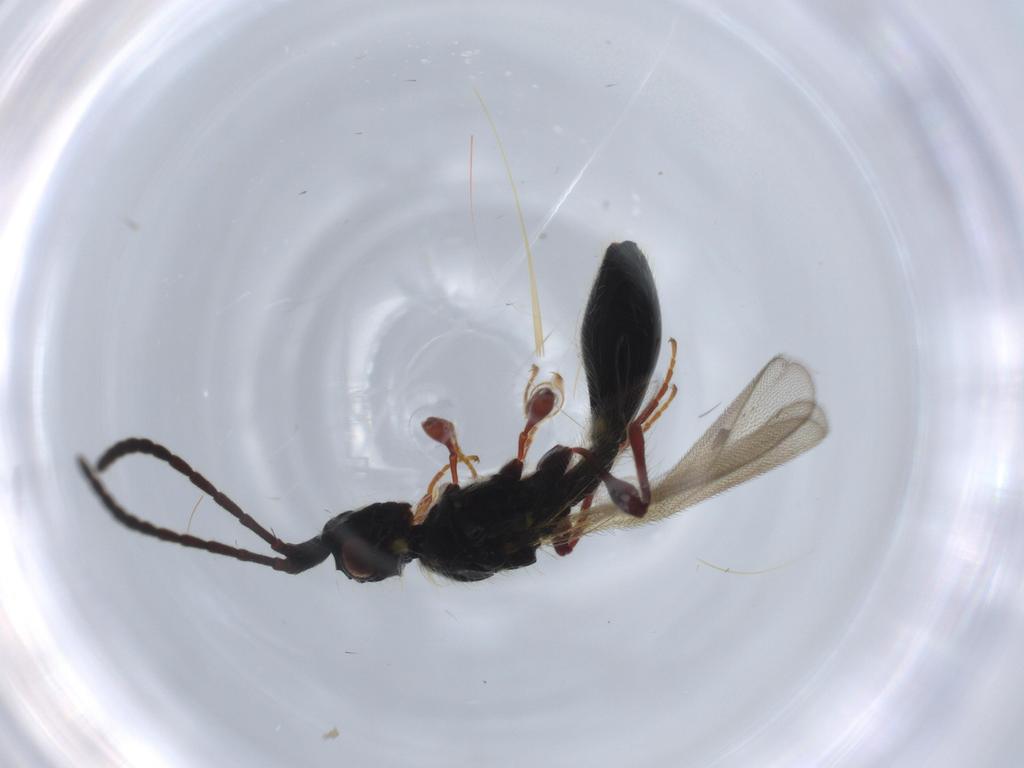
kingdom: Animalia
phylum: Arthropoda
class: Insecta
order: Hymenoptera
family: Diapriidae
